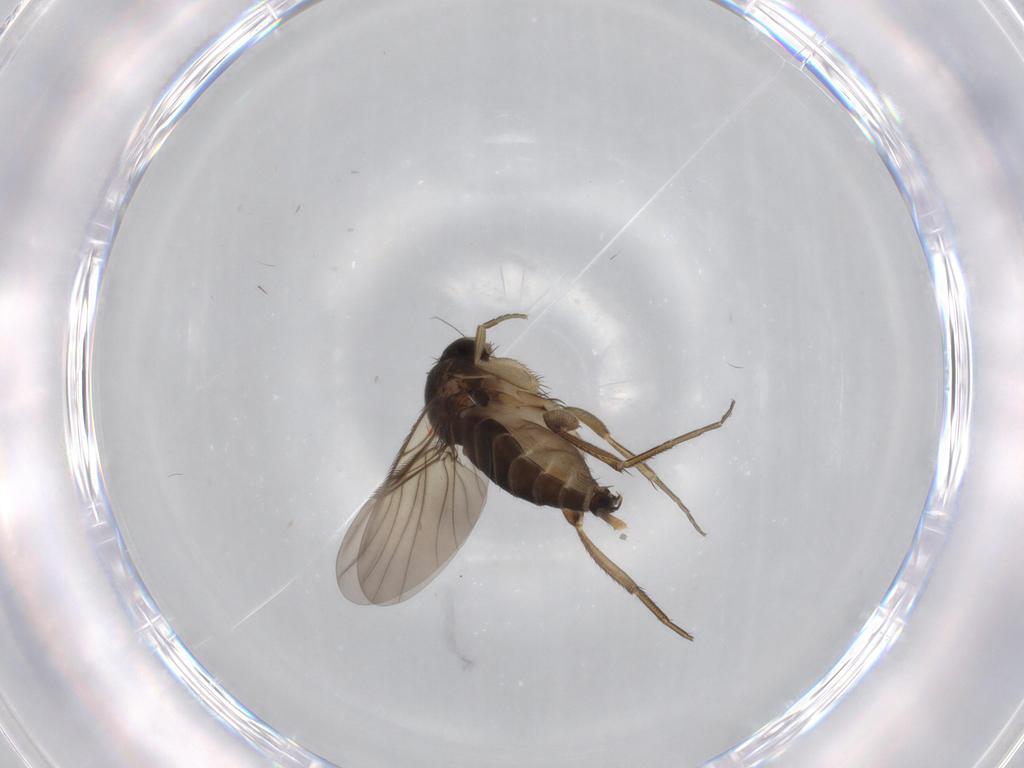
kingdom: Animalia
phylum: Arthropoda
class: Insecta
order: Diptera
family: Phoridae
